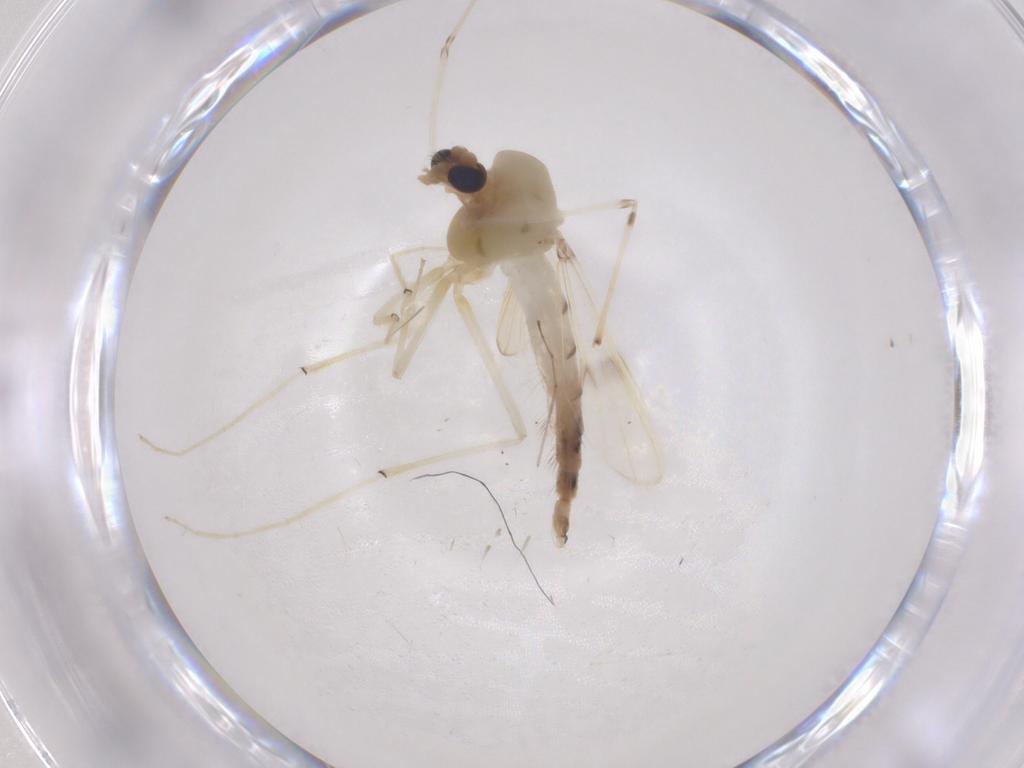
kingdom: Animalia
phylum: Arthropoda
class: Insecta
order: Diptera
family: Chironomidae
